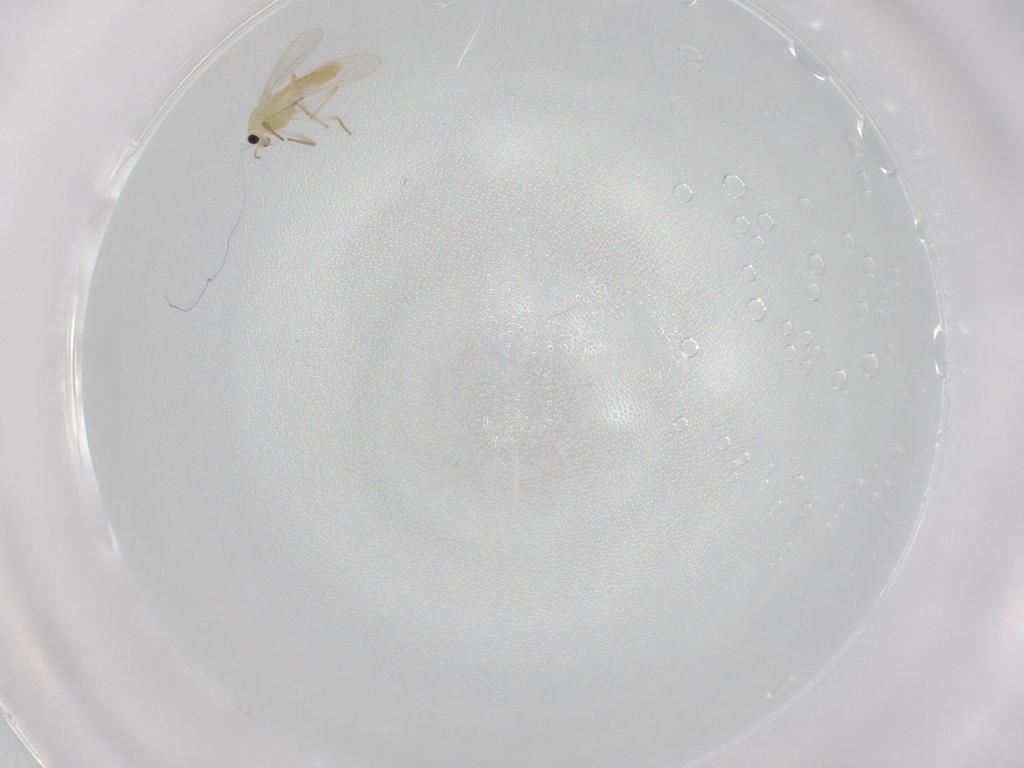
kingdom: Animalia
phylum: Arthropoda
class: Insecta
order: Diptera
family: Chironomidae
